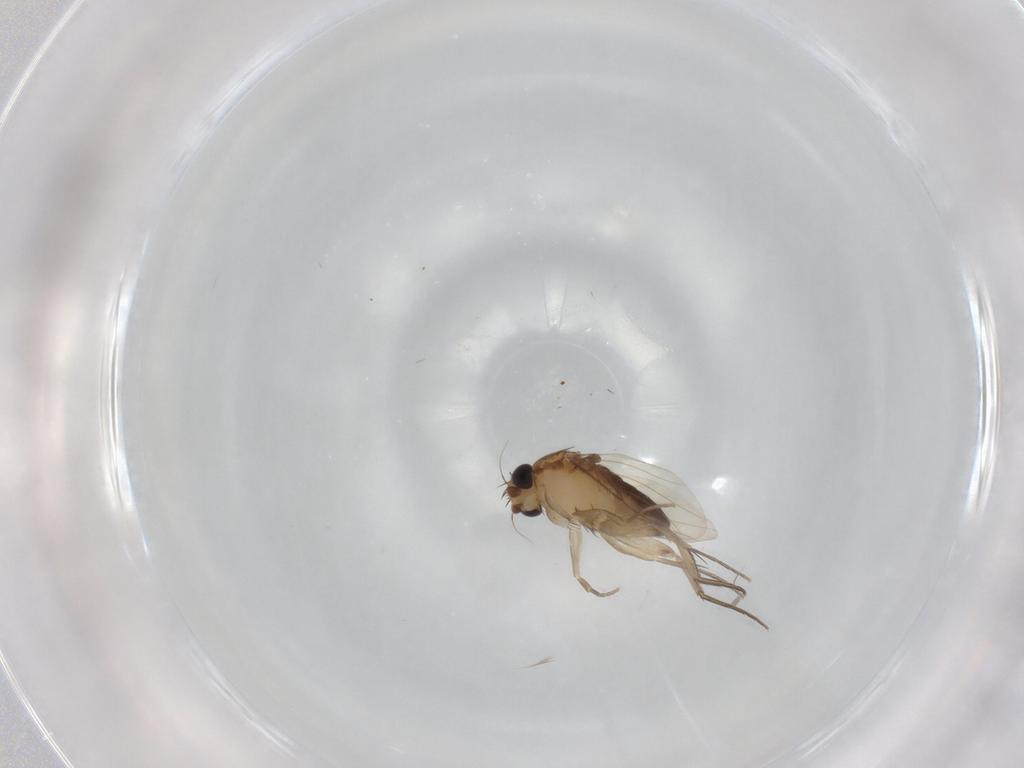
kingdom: Animalia
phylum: Arthropoda
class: Insecta
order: Diptera
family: Phoridae
